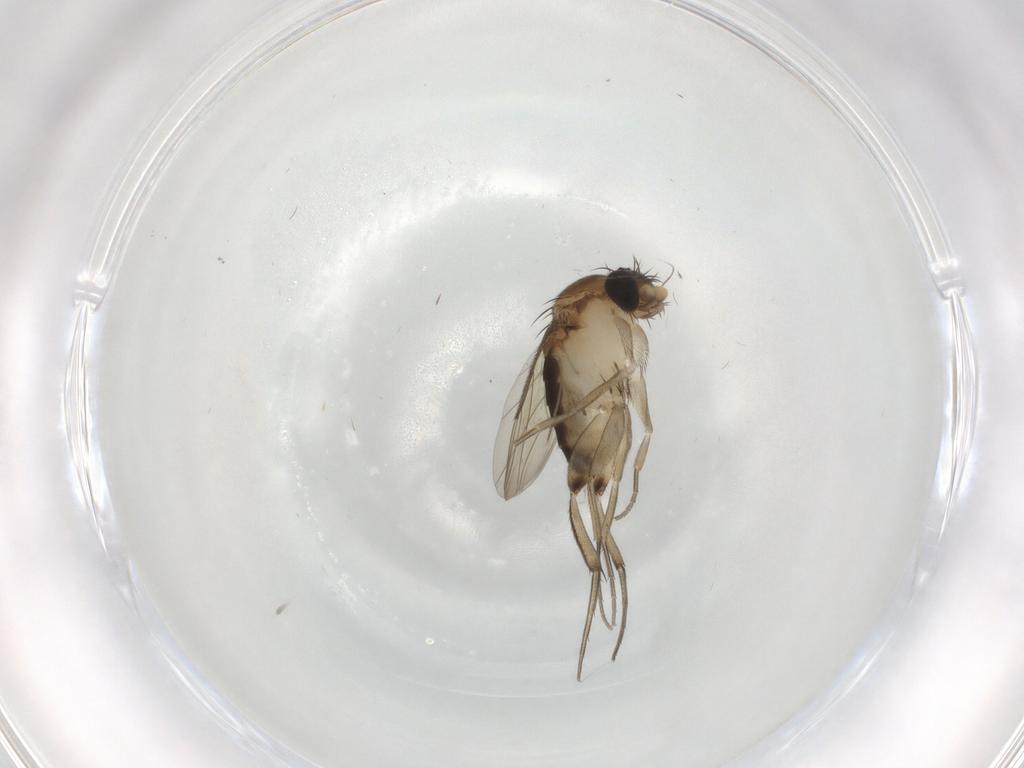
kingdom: Animalia
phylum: Arthropoda
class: Insecta
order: Diptera
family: Phoridae
